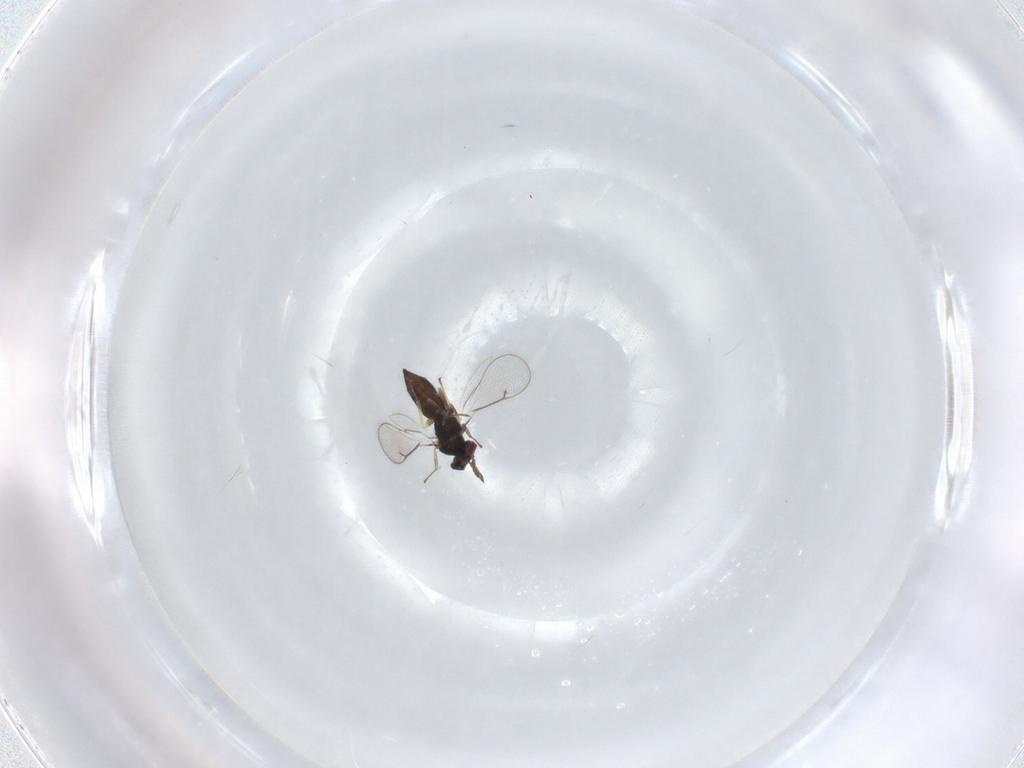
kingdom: Animalia
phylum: Arthropoda
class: Insecta
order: Hymenoptera
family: Eulophidae
